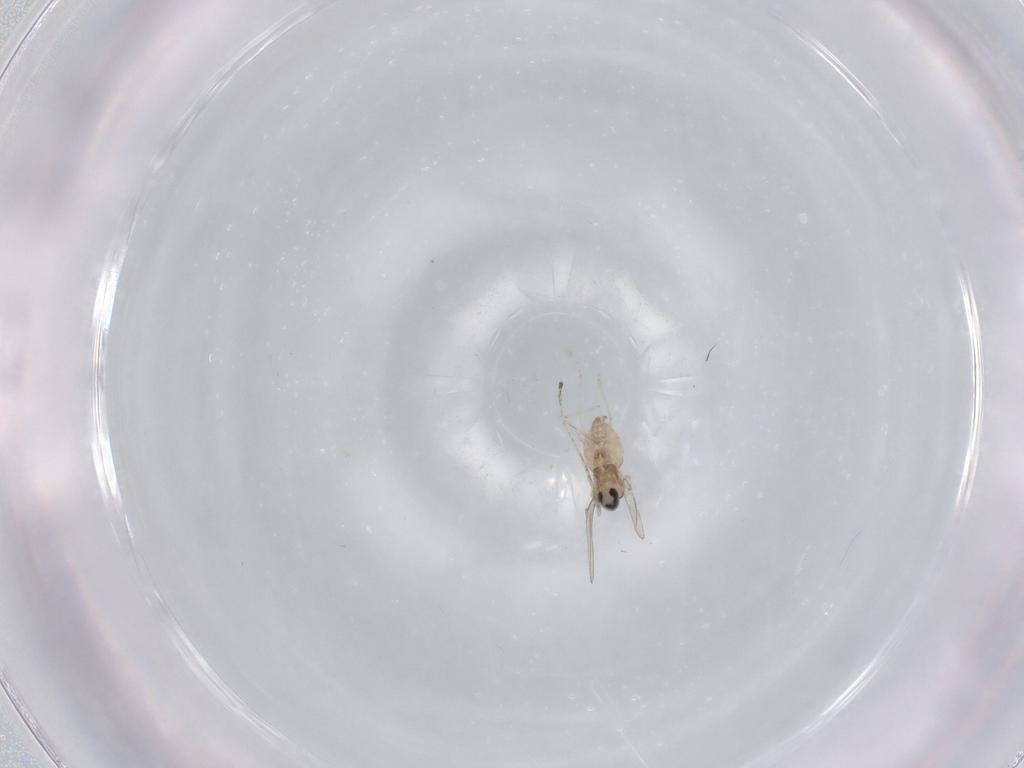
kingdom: Animalia
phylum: Arthropoda
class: Insecta
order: Diptera
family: Cecidomyiidae
